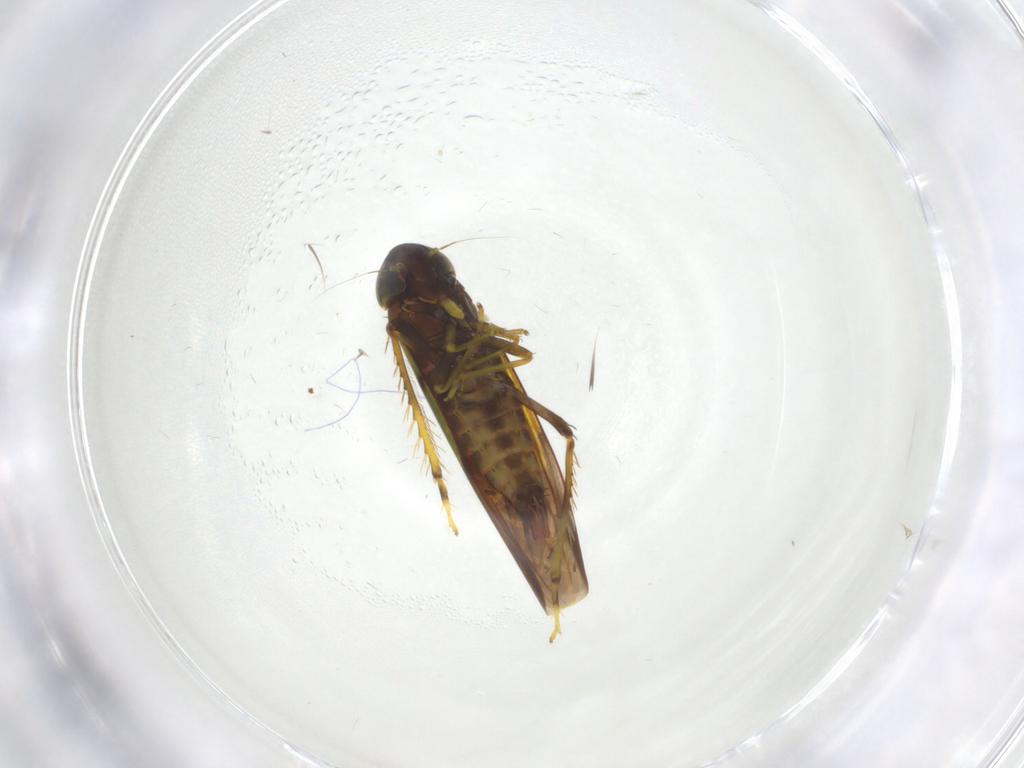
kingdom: Animalia
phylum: Arthropoda
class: Insecta
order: Hemiptera
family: Cicadellidae
